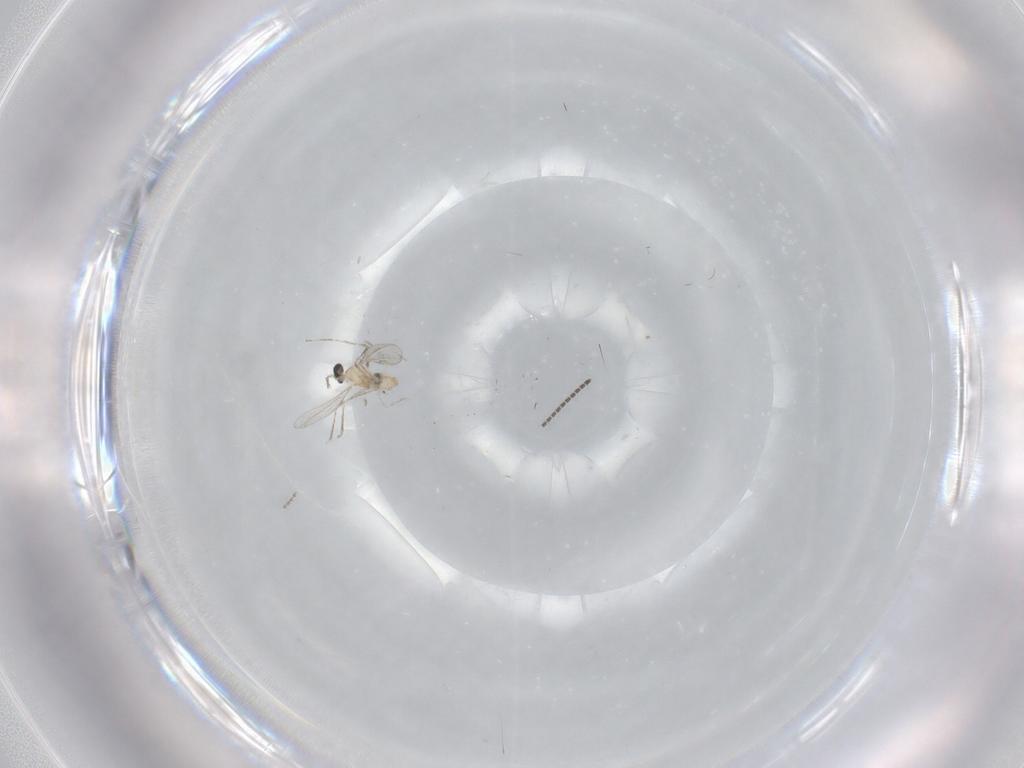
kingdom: Animalia
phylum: Arthropoda
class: Insecta
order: Diptera
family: Sciaridae
